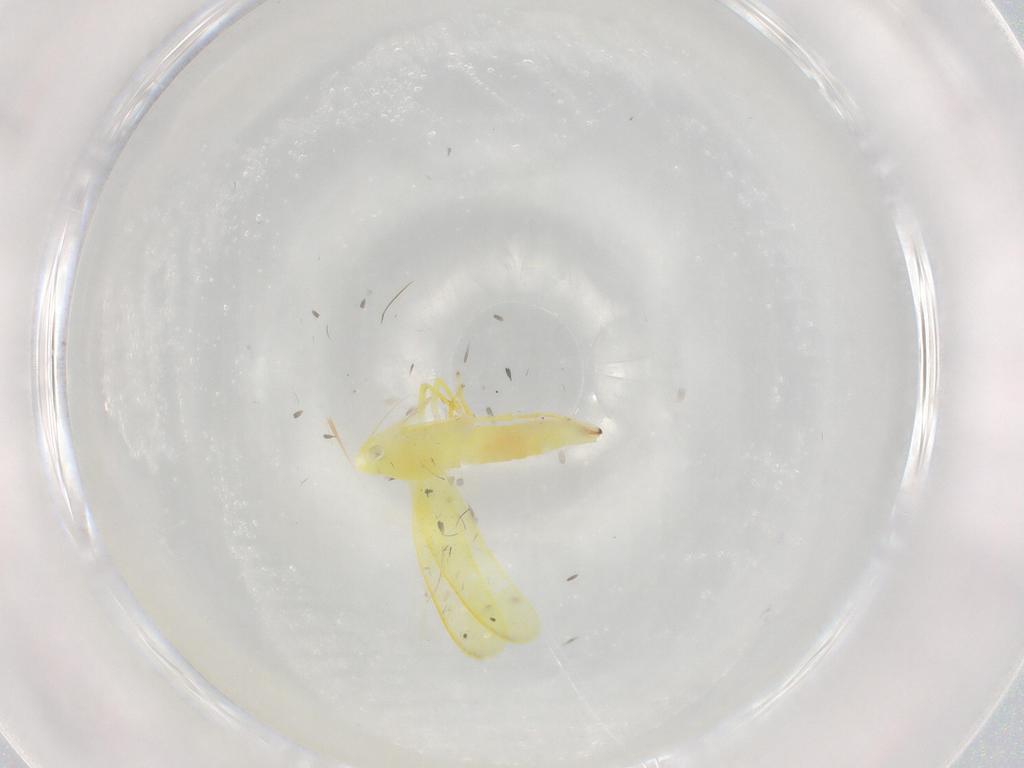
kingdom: Animalia
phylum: Arthropoda
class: Insecta
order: Hemiptera
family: Cicadellidae
